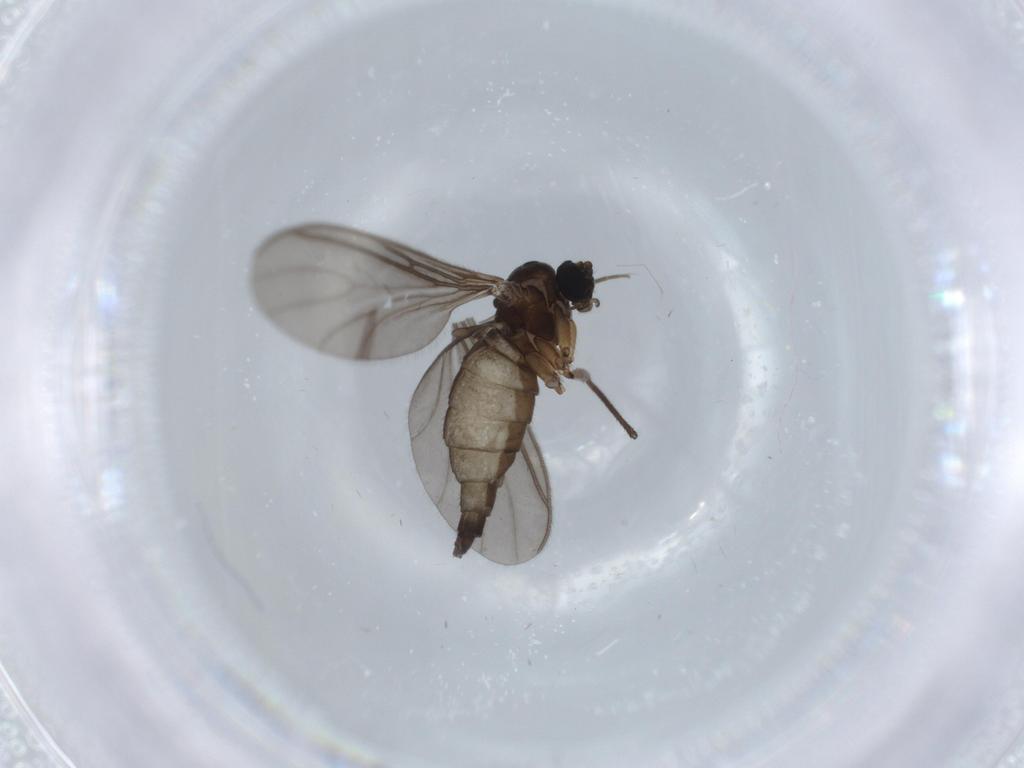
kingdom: Animalia
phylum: Arthropoda
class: Insecta
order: Diptera
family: Sciaridae
